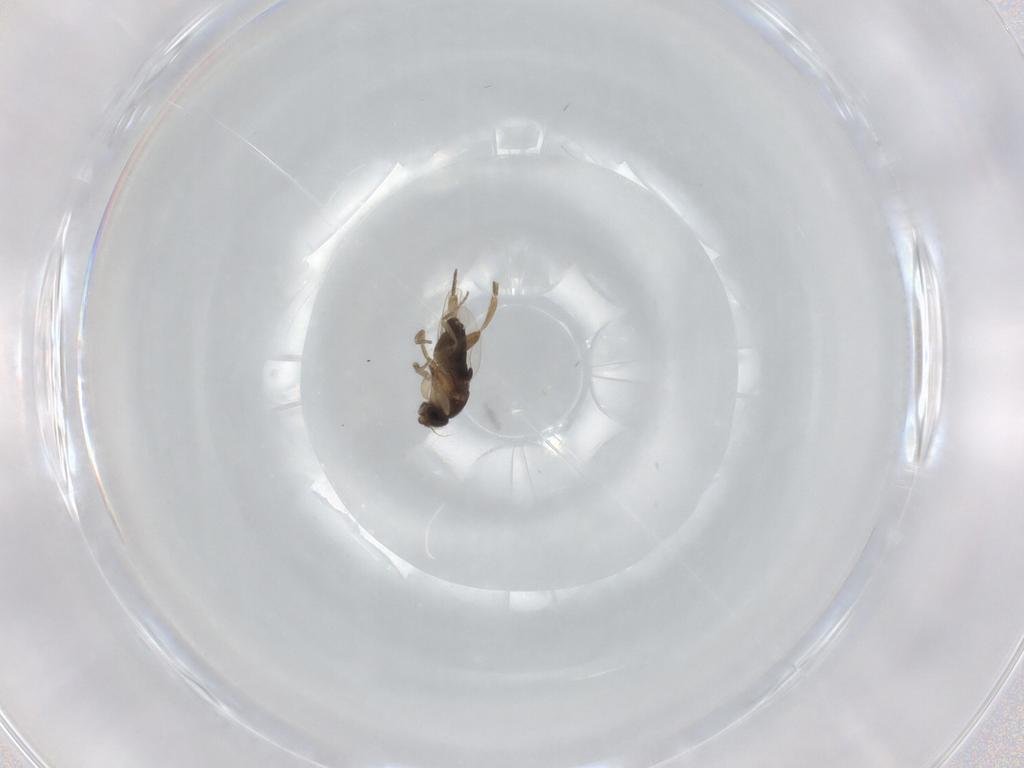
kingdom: Animalia
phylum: Arthropoda
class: Insecta
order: Diptera
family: Phoridae
